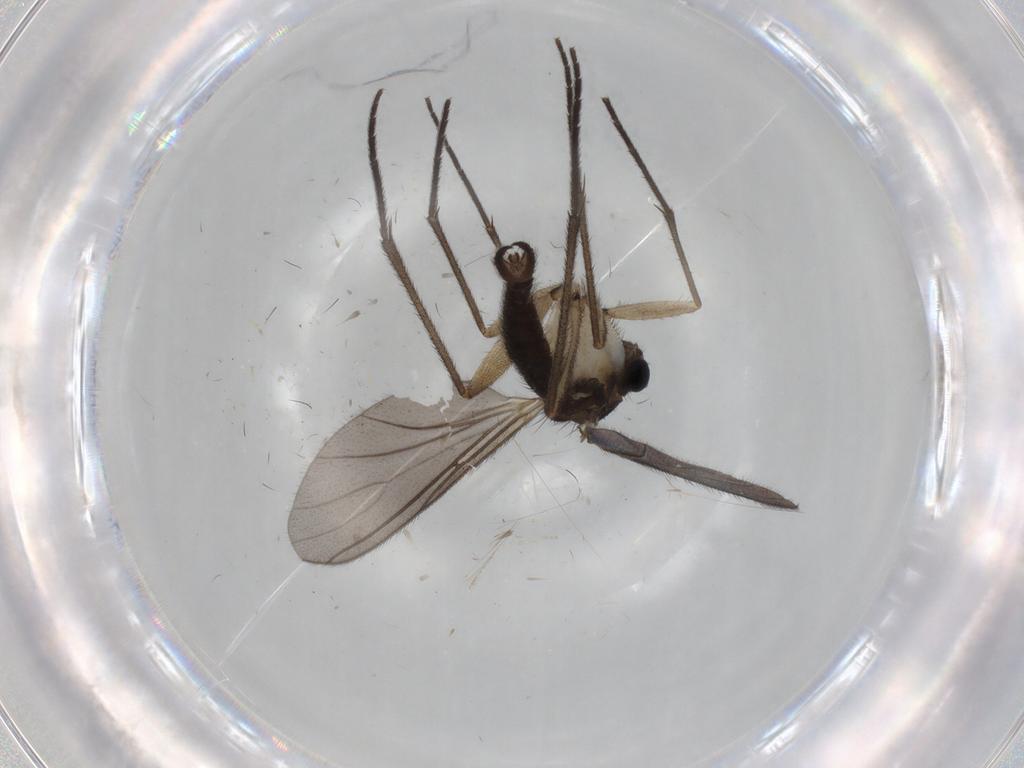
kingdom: Animalia
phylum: Arthropoda
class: Insecta
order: Diptera
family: Sciaridae
